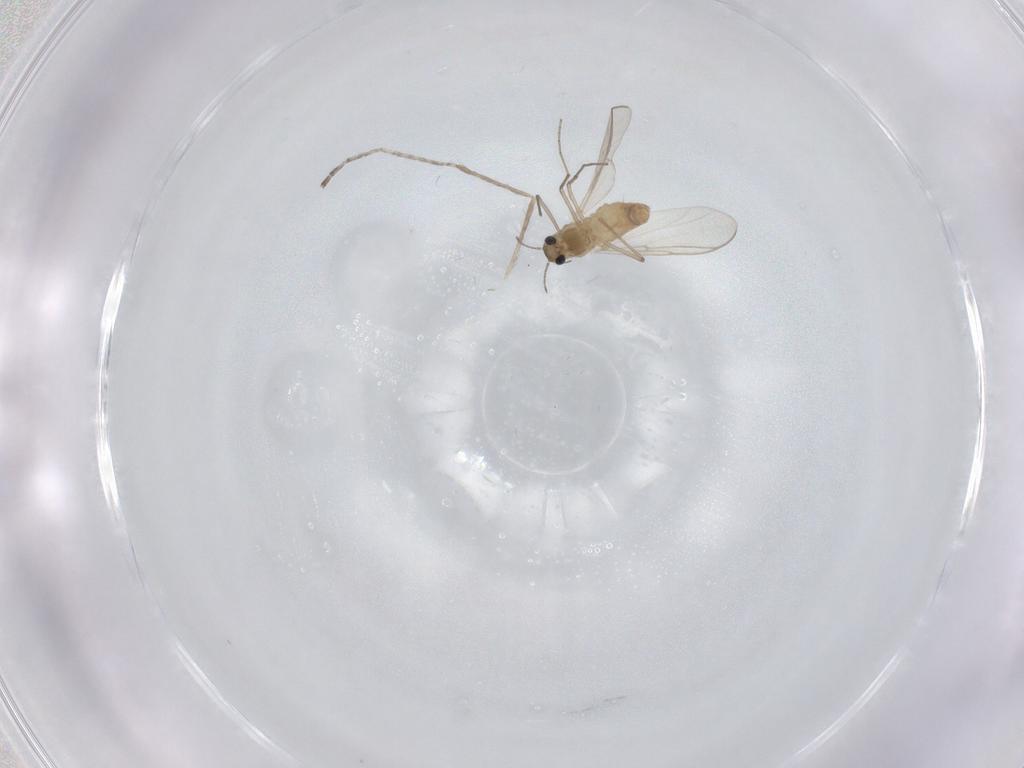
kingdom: Animalia
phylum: Arthropoda
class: Insecta
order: Diptera
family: Chironomidae
